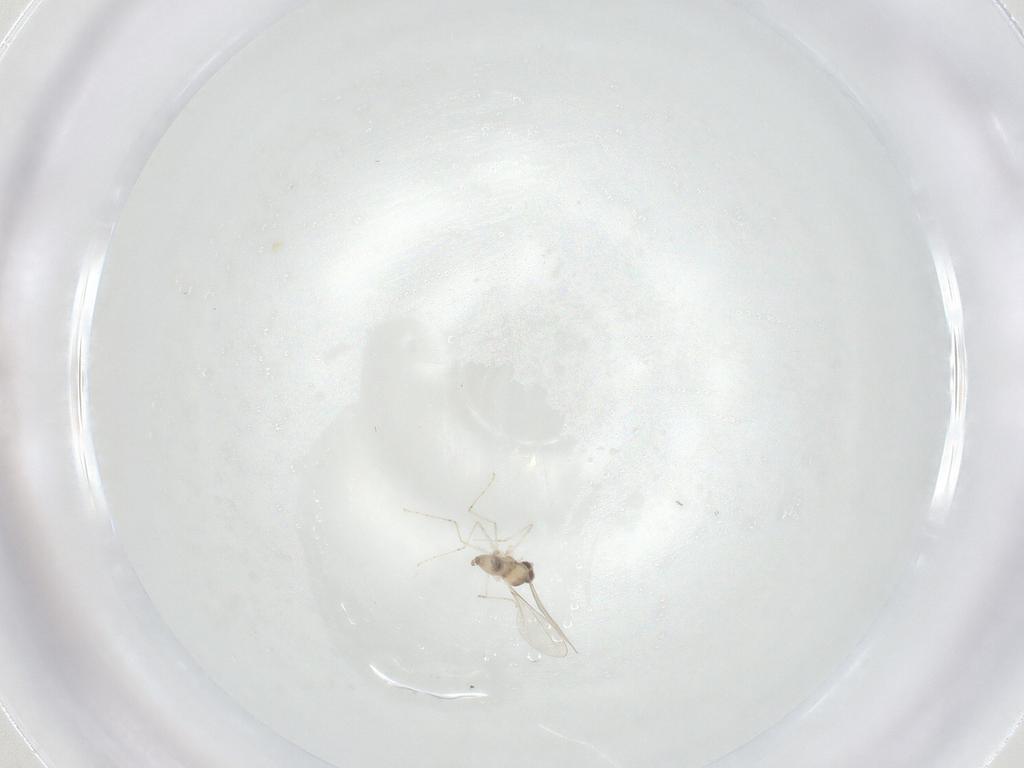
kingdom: Animalia
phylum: Arthropoda
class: Insecta
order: Diptera
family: Cecidomyiidae
